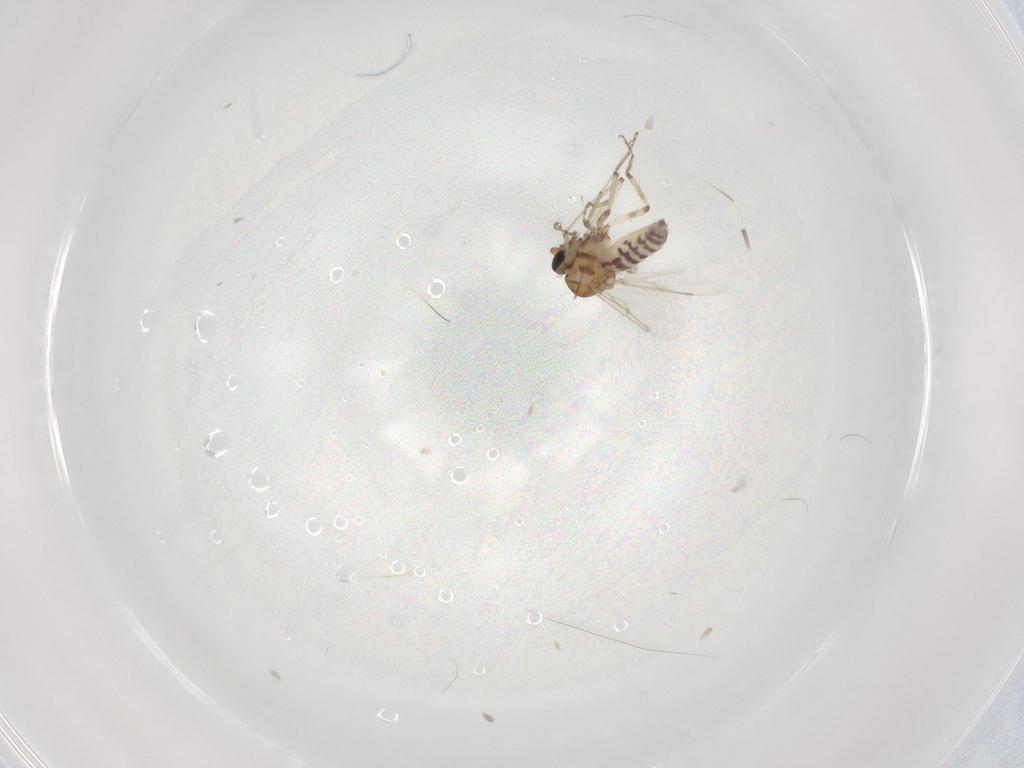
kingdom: Animalia
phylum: Arthropoda
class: Insecta
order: Diptera
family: Ceratopogonidae
